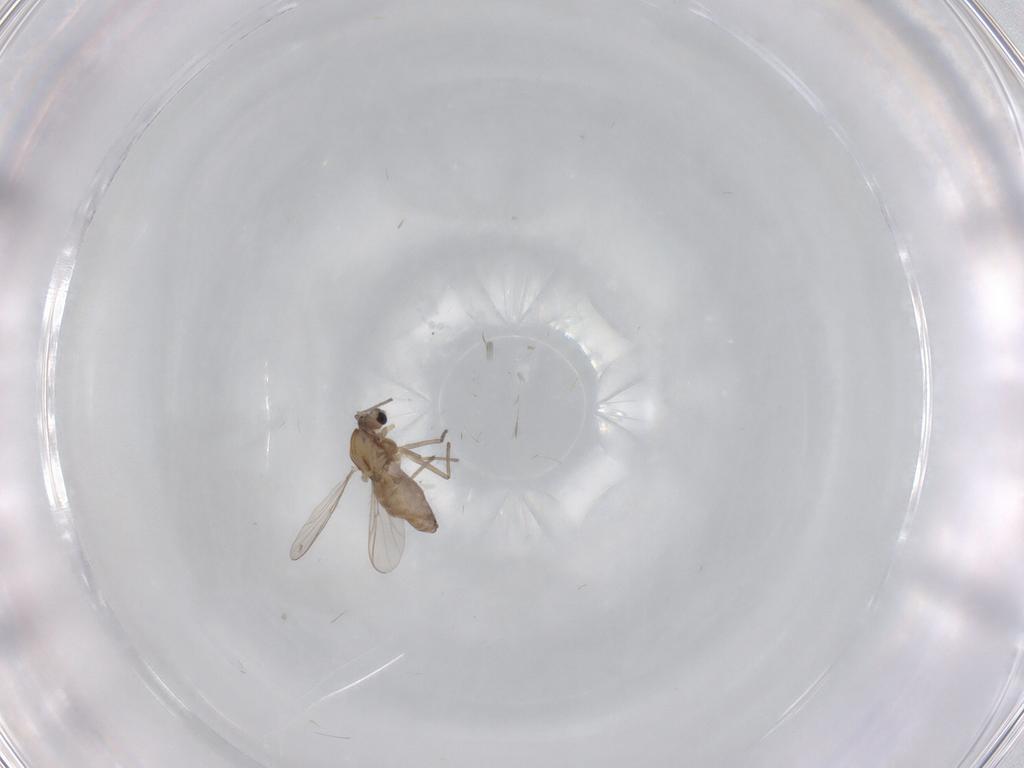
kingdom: Animalia
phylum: Arthropoda
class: Insecta
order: Diptera
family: Chironomidae
